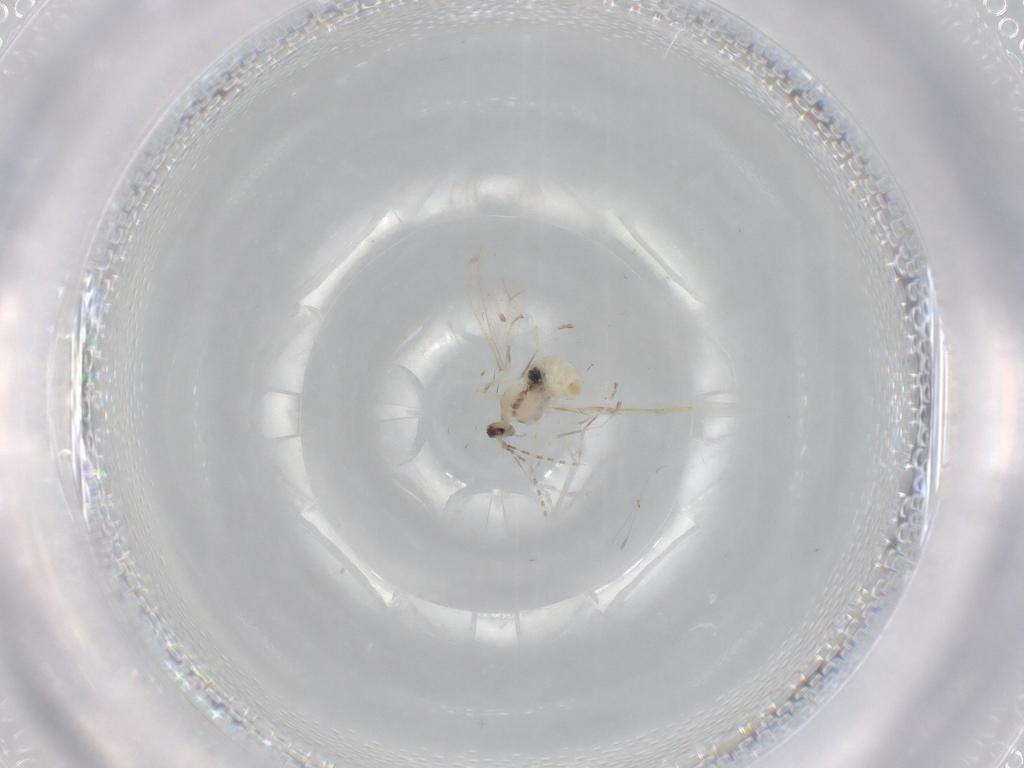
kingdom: Animalia
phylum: Arthropoda
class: Insecta
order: Diptera
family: Cecidomyiidae
